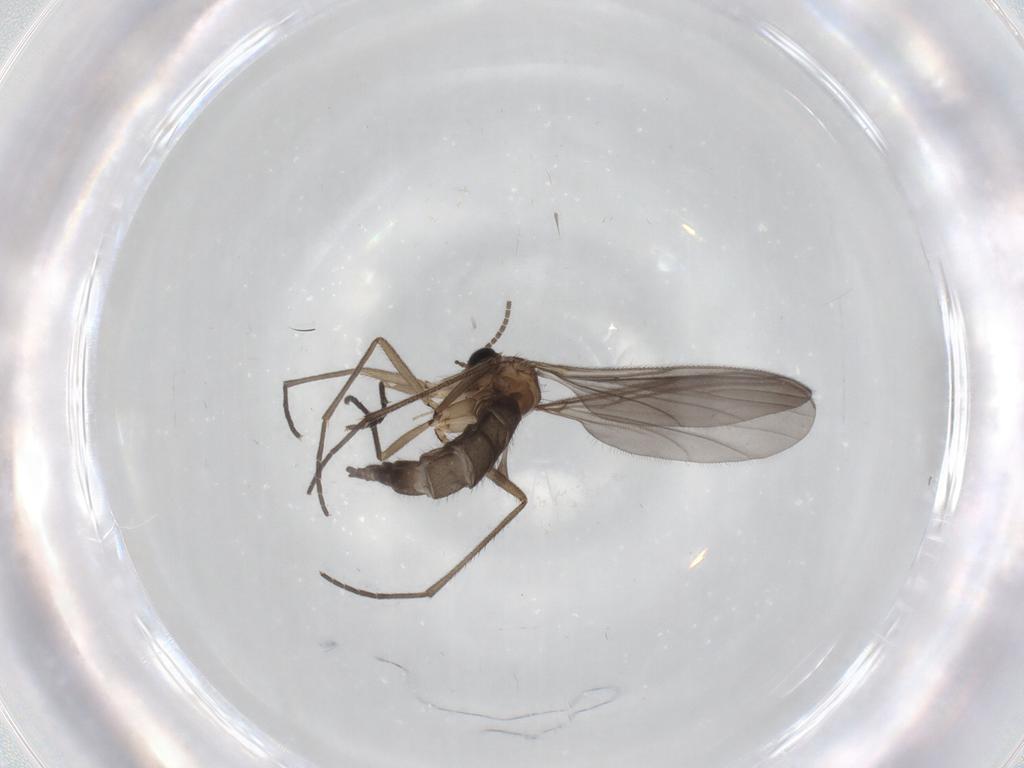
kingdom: Animalia
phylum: Arthropoda
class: Insecta
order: Diptera
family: Sciaridae
